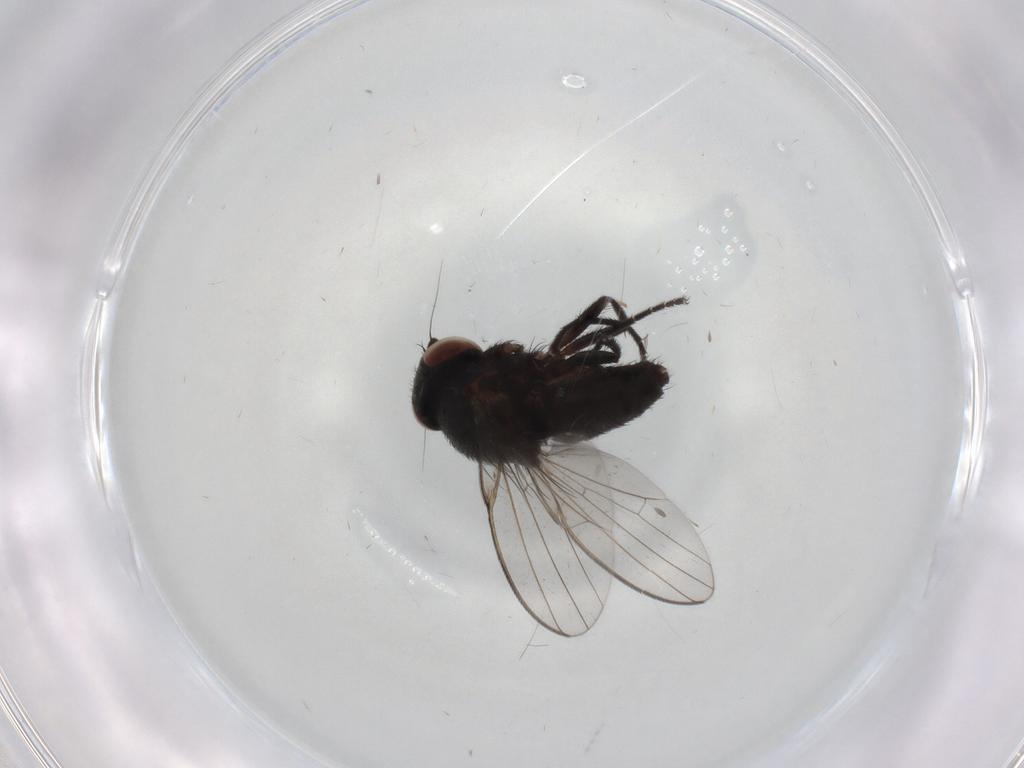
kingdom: Animalia
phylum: Arthropoda
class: Insecta
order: Diptera
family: Milichiidae
